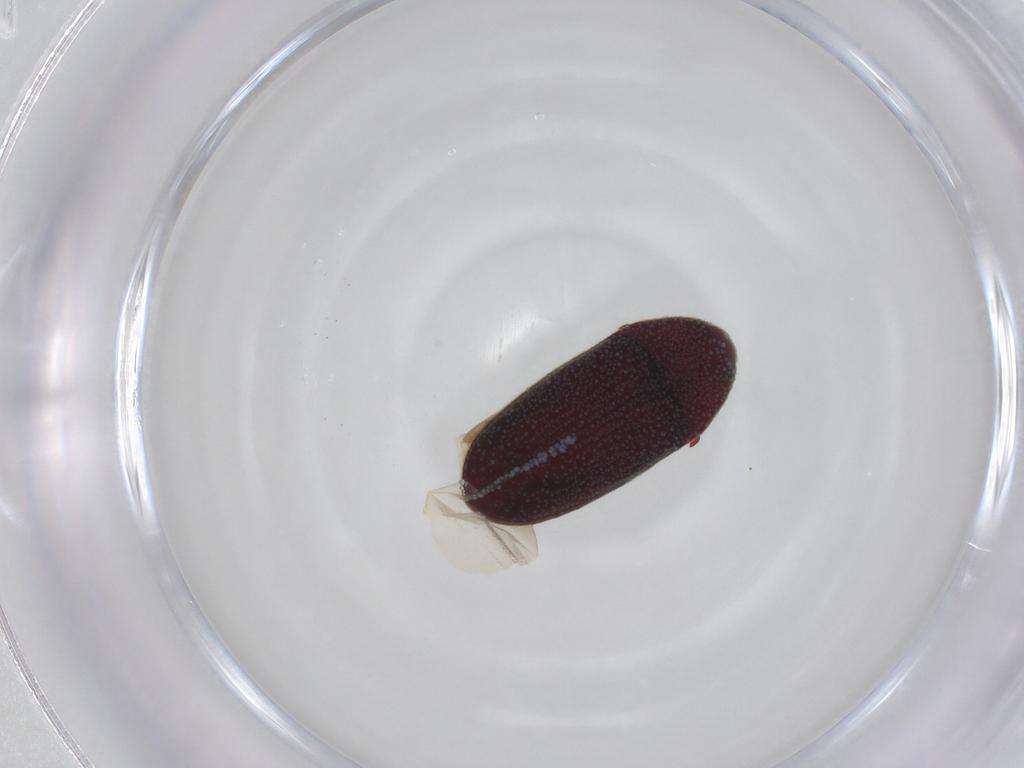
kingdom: Animalia
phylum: Arthropoda
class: Insecta
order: Coleoptera
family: Throscidae
